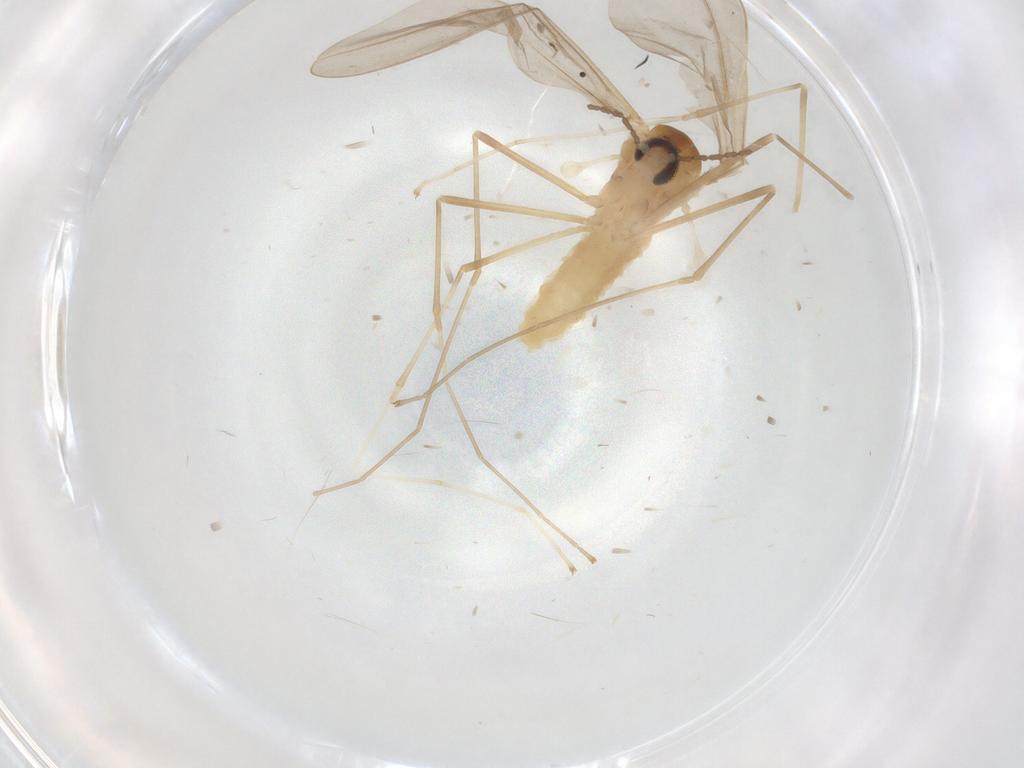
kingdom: Animalia
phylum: Arthropoda
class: Insecta
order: Diptera
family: Cecidomyiidae
